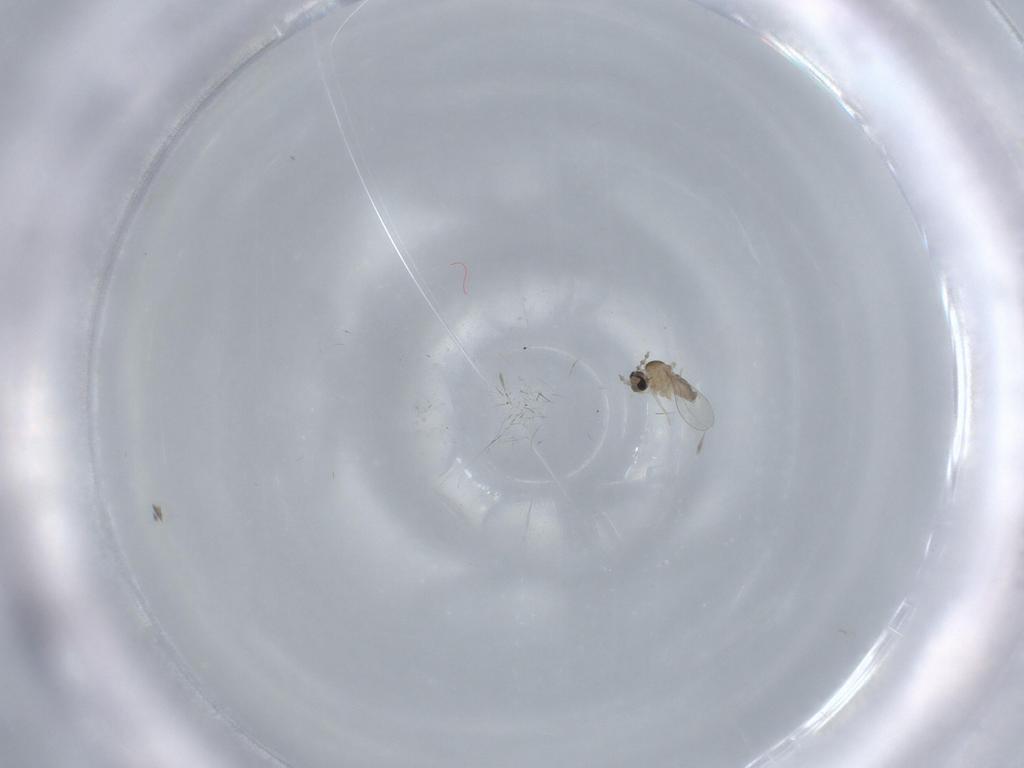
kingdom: Animalia
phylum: Arthropoda
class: Insecta
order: Diptera
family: Cecidomyiidae
